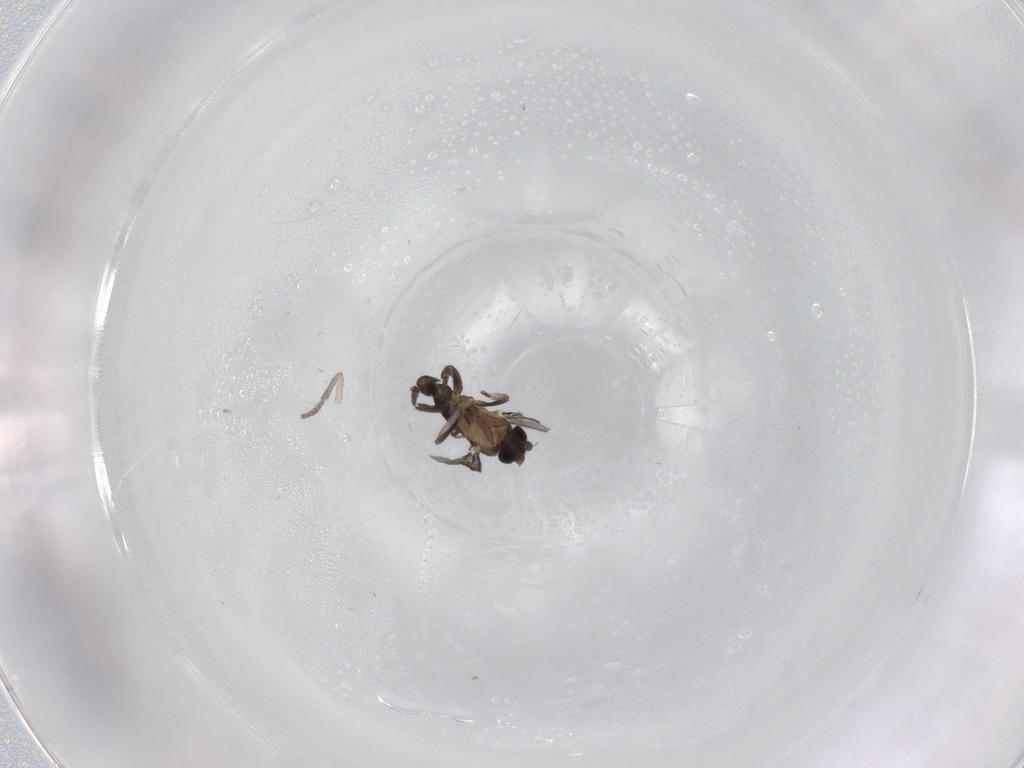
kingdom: Animalia
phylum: Arthropoda
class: Insecta
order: Diptera
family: Phoridae
